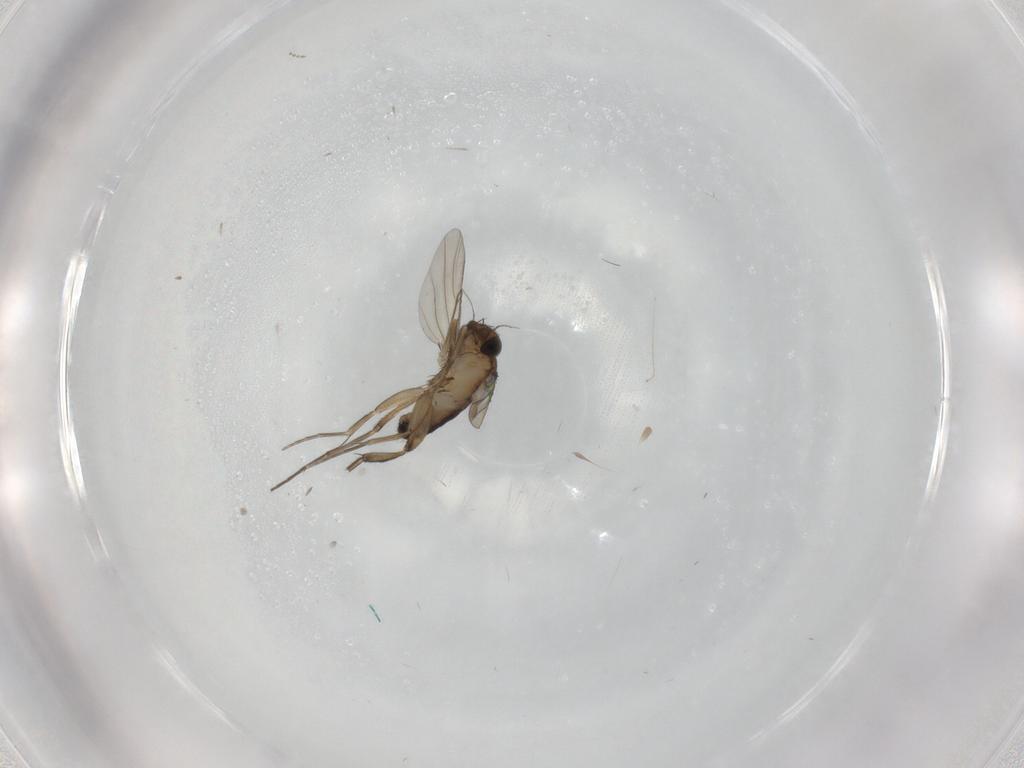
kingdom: Animalia
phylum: Arthropoda
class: Insecta
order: Diptera
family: Phoridae
